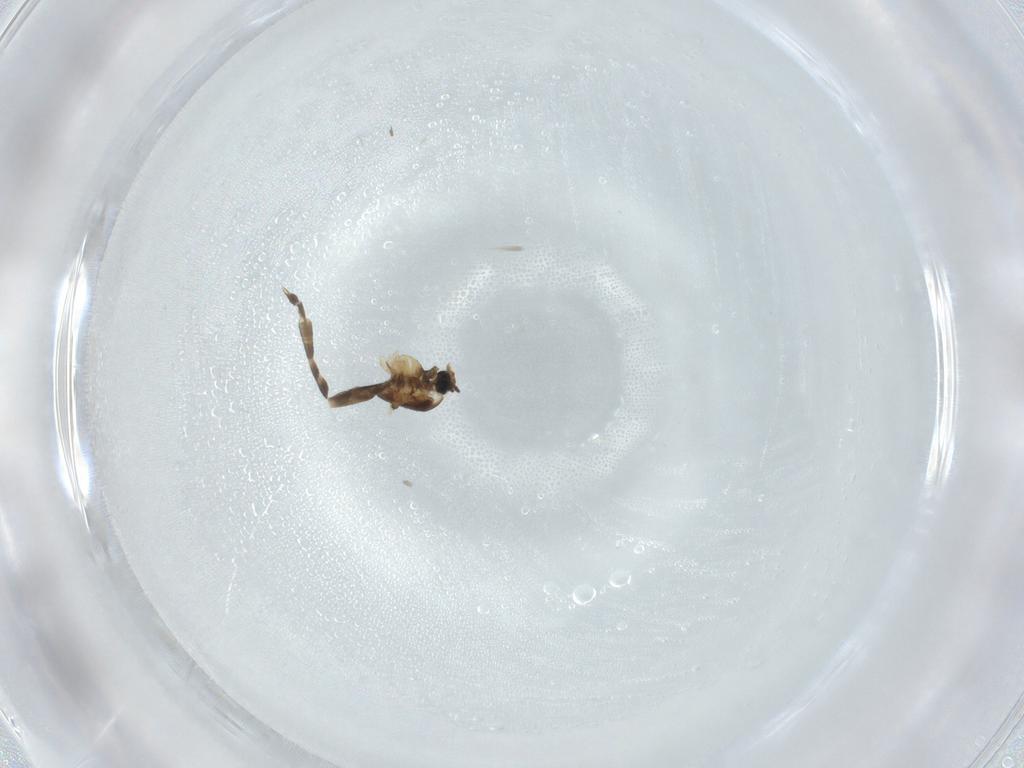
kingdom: Animalia
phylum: Arthropoda
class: Insecta
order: Diptera
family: Chironomidae
